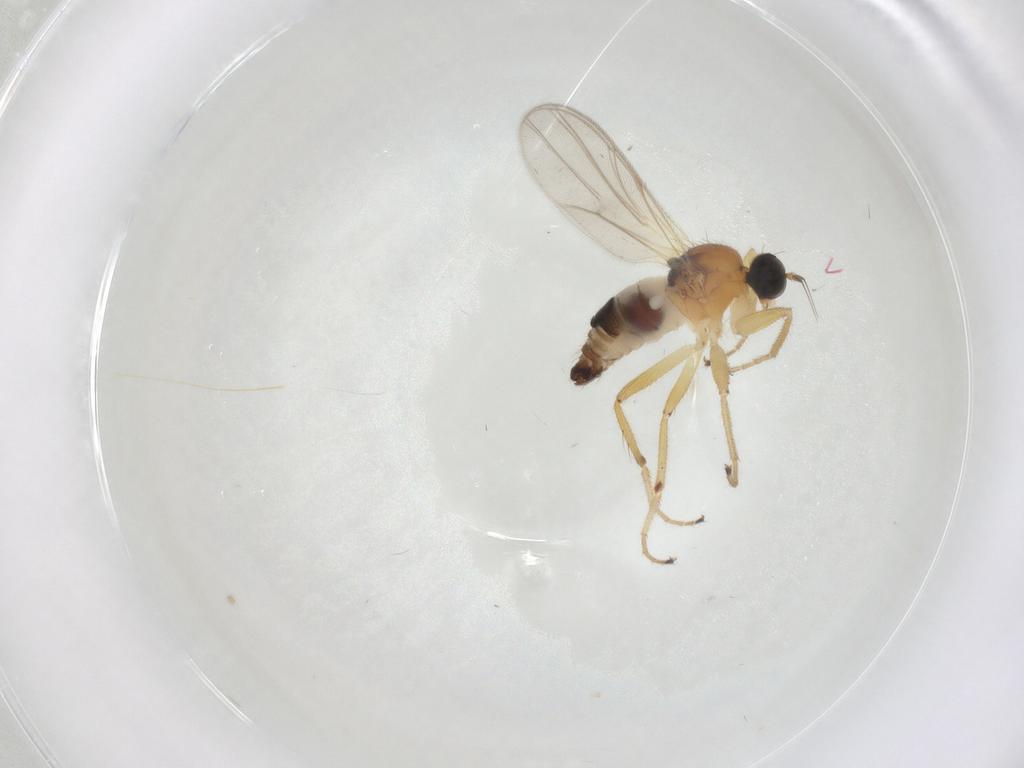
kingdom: Animalia
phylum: Arthropoda
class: Insecta
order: Diptera
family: Hybotidae
